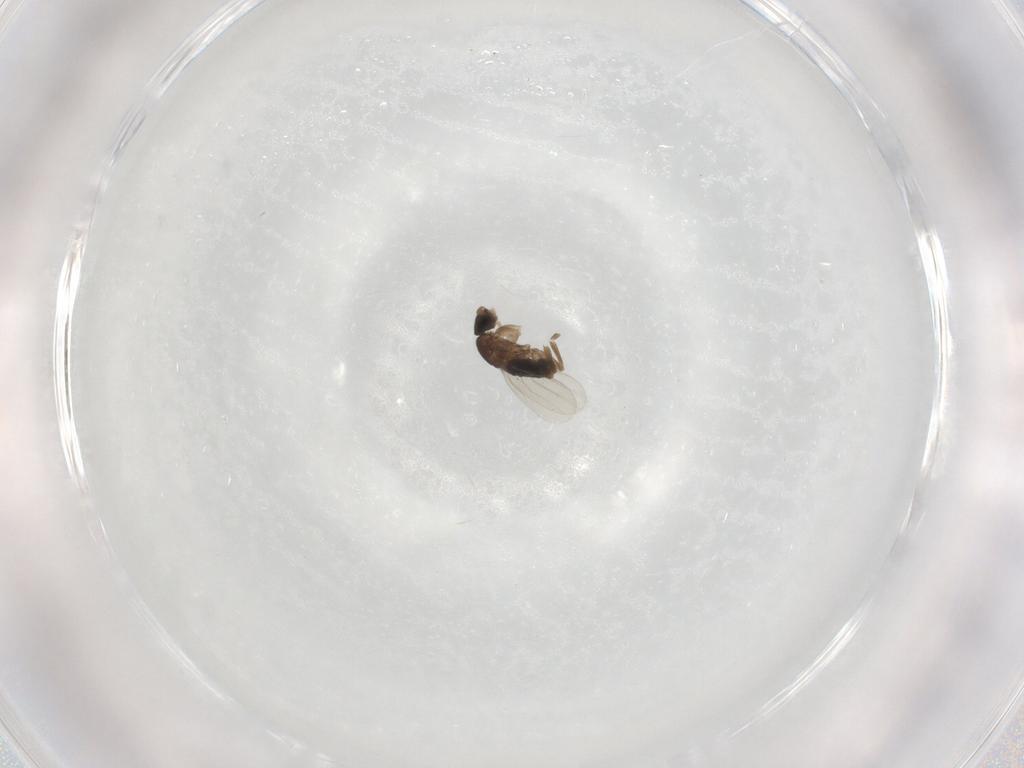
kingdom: Animalia
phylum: Arthropoda
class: Insecta
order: Diptera
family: Phoridae
